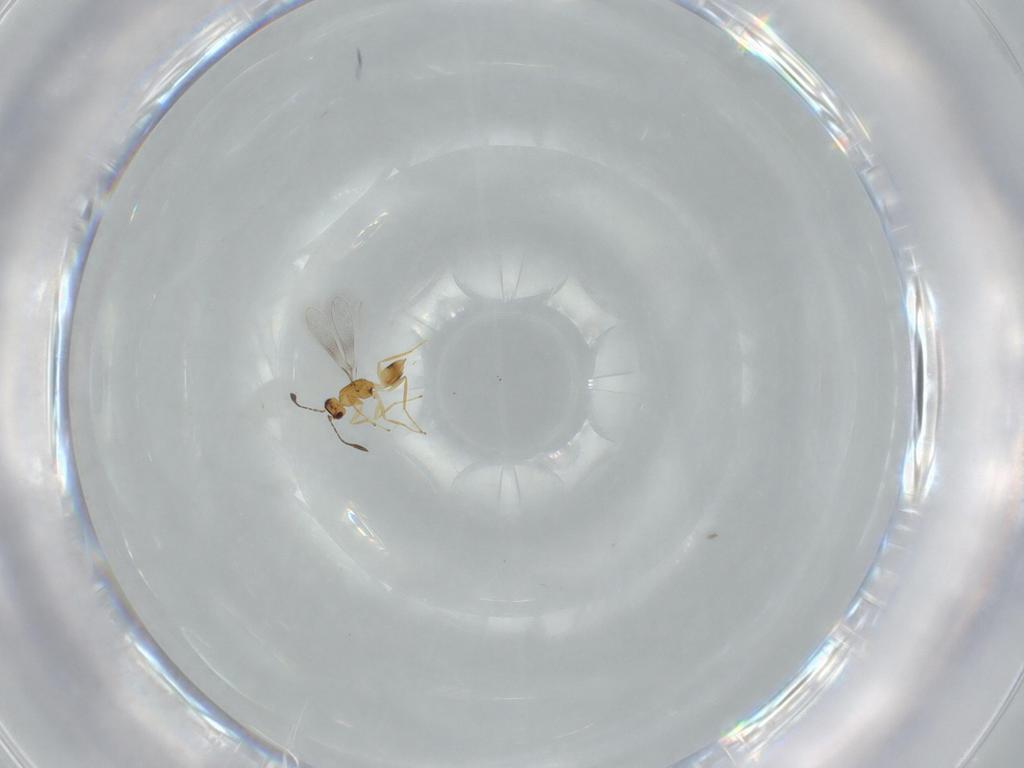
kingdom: Animalia
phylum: Arthropoda
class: Insecta
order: Hymenoptera
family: Mymaridae
